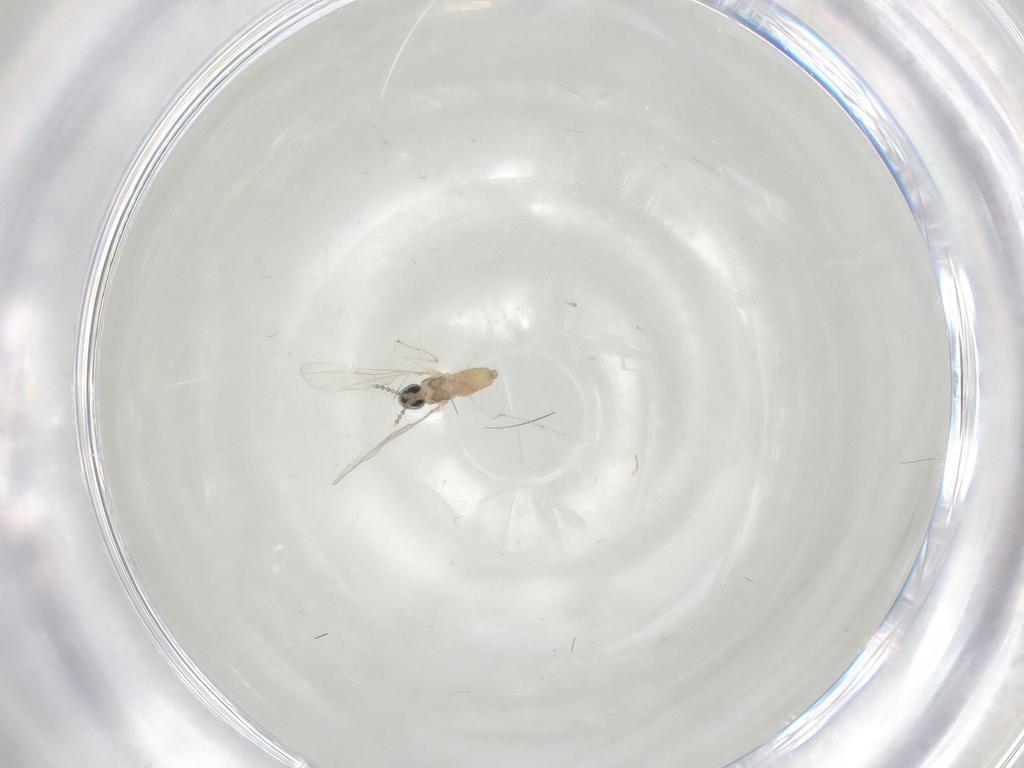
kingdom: Animalia
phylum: Arthropoda
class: Insecta
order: Diptera
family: Cecidomyiidae
